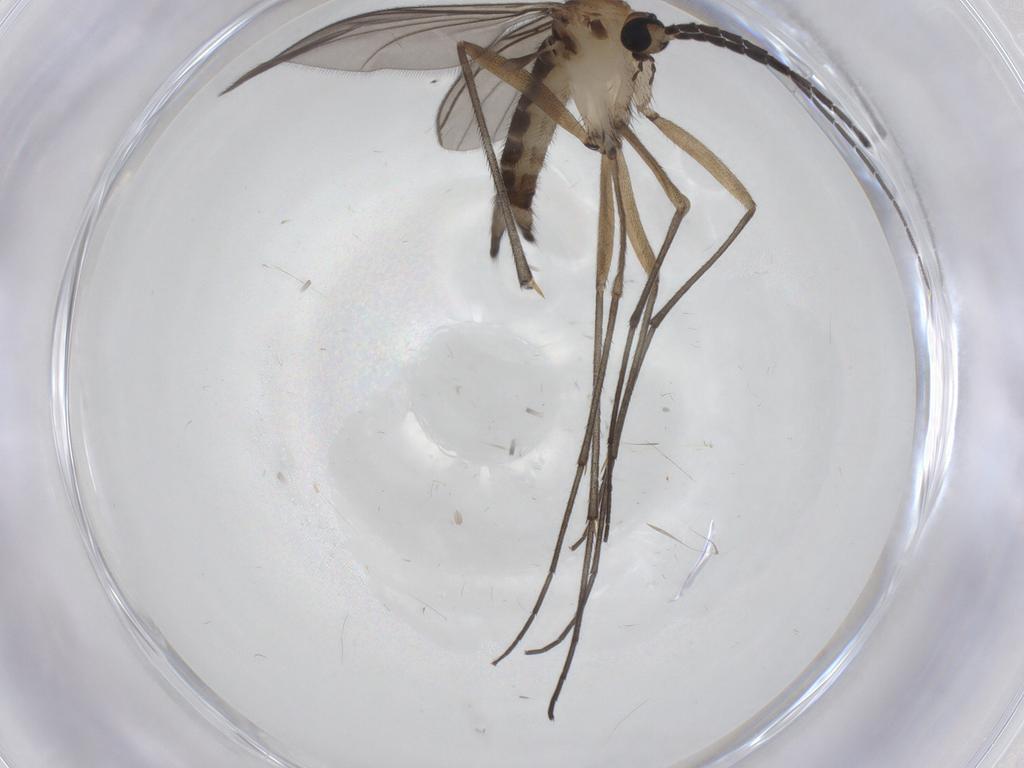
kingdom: Animalia
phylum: Arthropoda
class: Insecta
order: Diptera
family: Sciaridae
